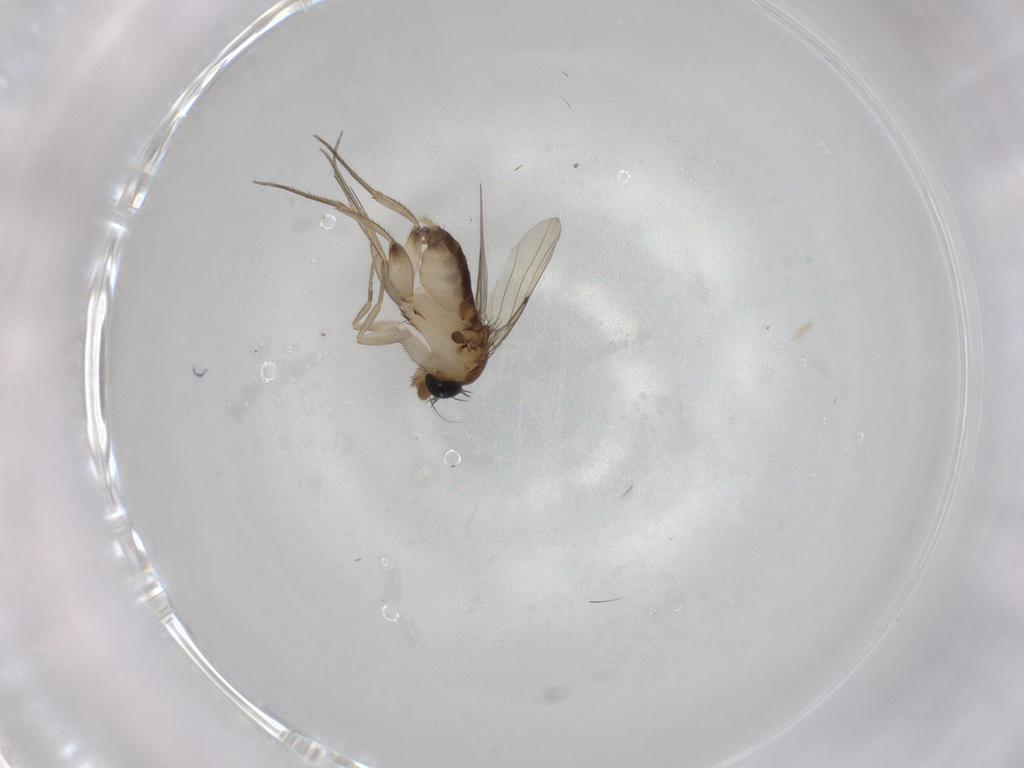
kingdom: Animalia
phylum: Arthropoda
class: Insecta
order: Diptera
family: Phoridae
